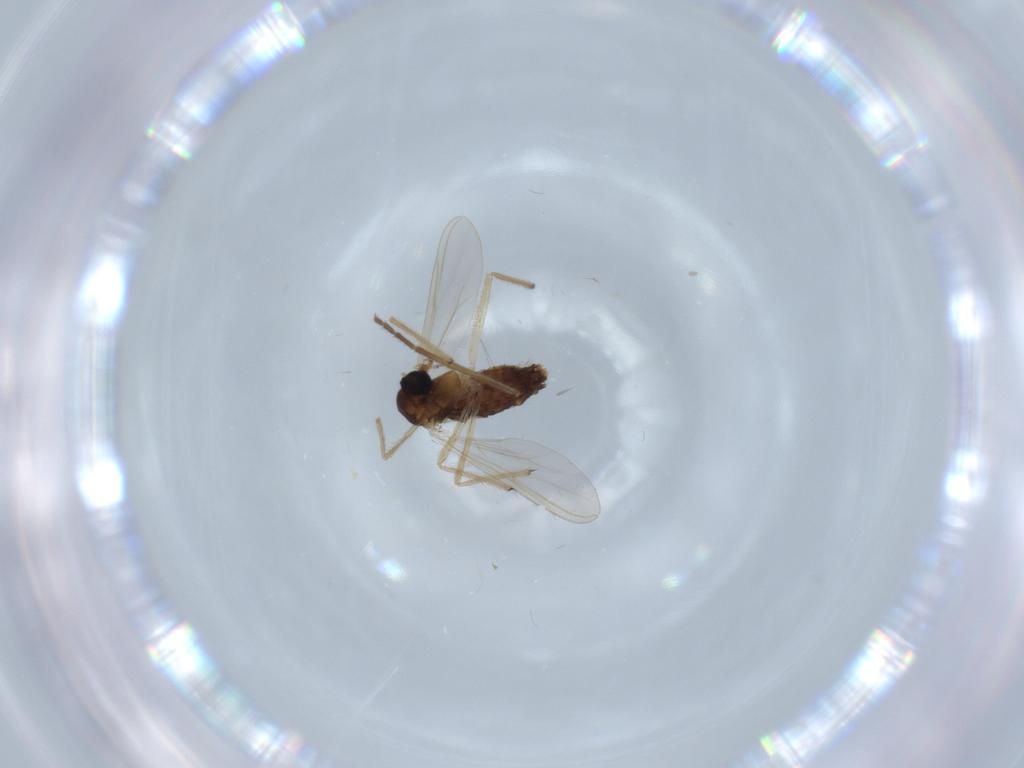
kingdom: Animalia
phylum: Arthropoda
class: Insecta
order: Diptera
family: Chironomidae
